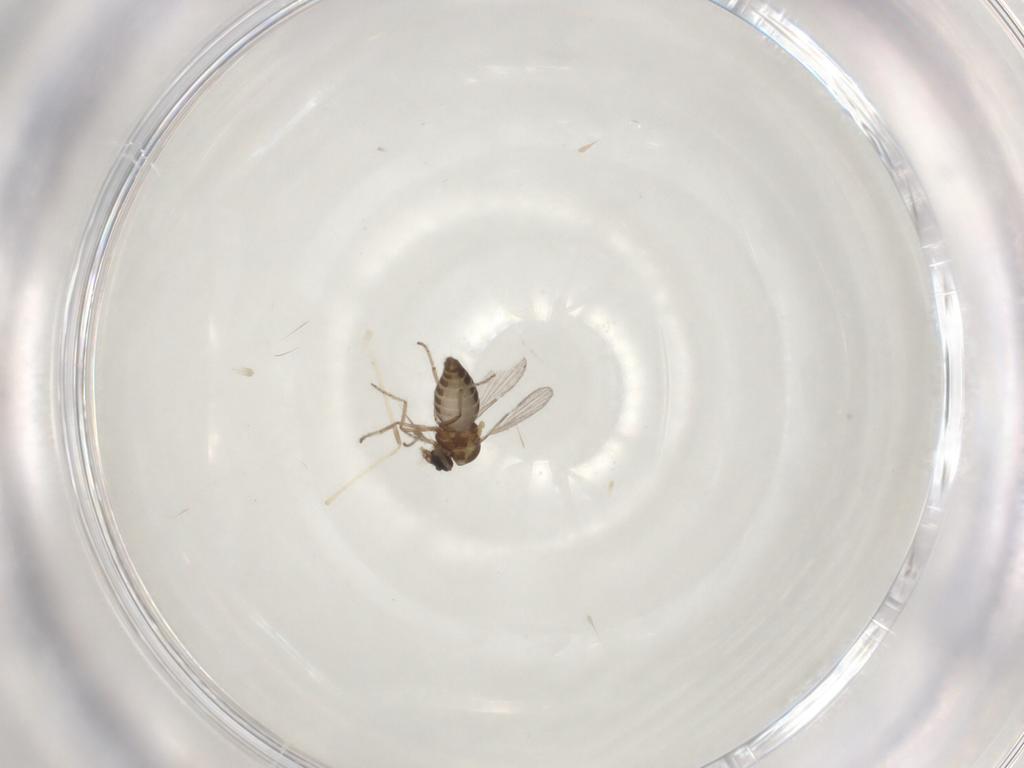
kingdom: Animalia
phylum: Arthropoda
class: Insecta
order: Diptera
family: Ceratopogonidae
